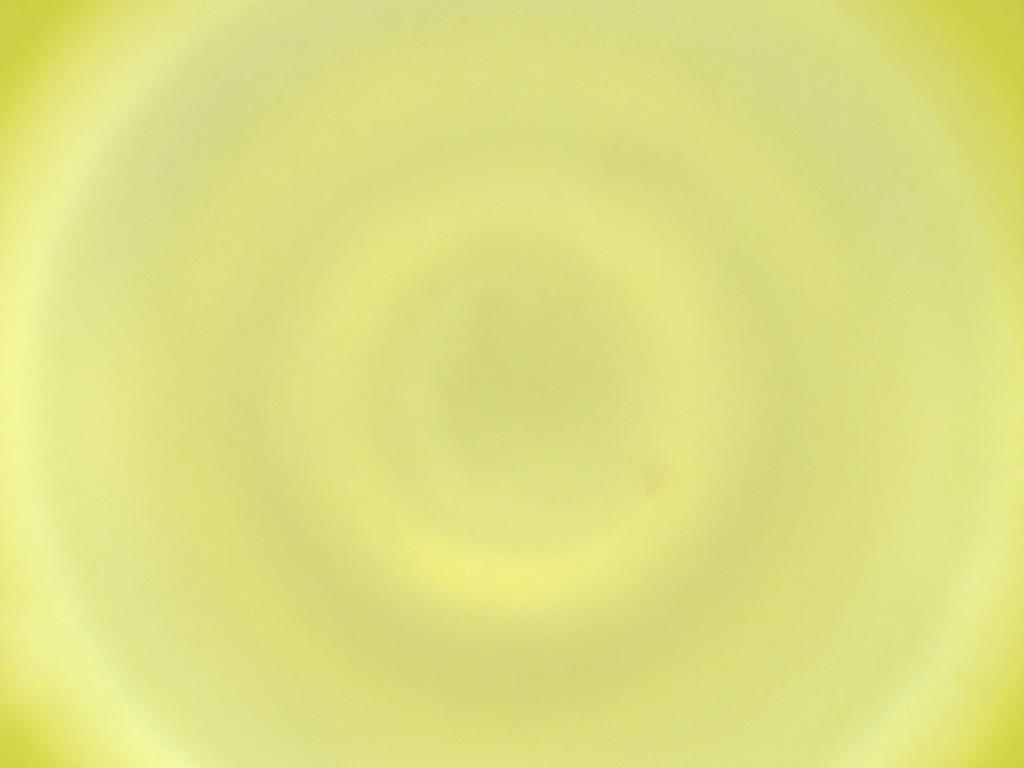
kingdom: Animalia
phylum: Arthropoda
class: Insecta
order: Diptera
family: Cecidomyiidae
